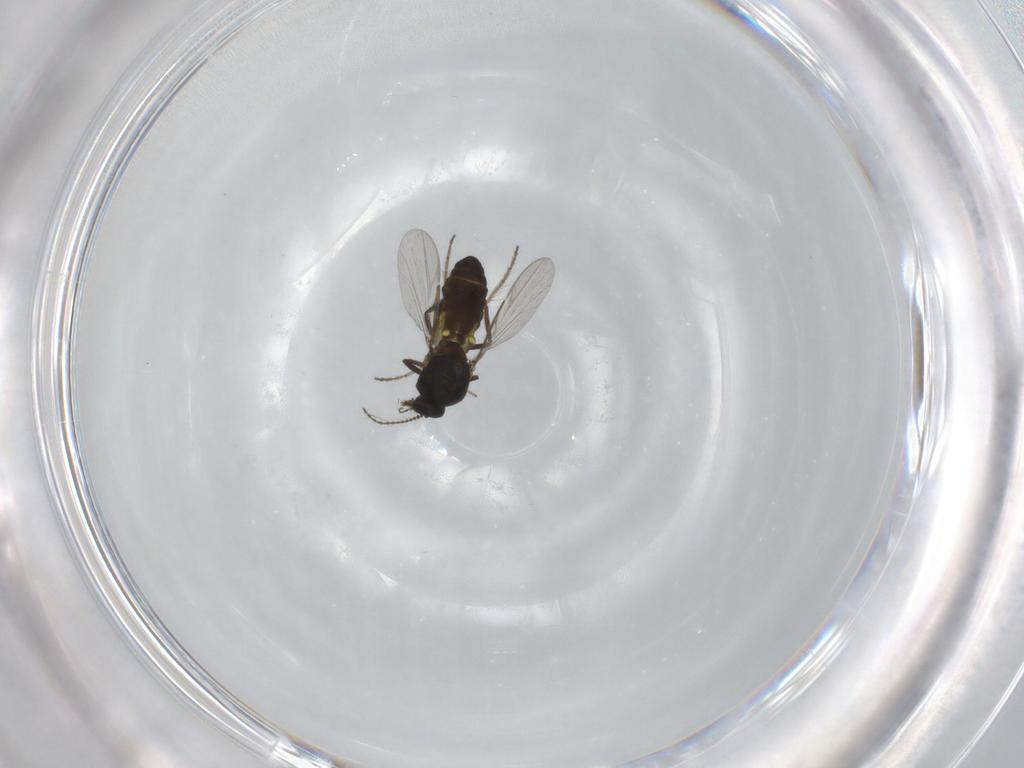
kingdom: Animalia
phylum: Arthropoda
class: Insecta
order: Diptera
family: Ceratopogonidae
